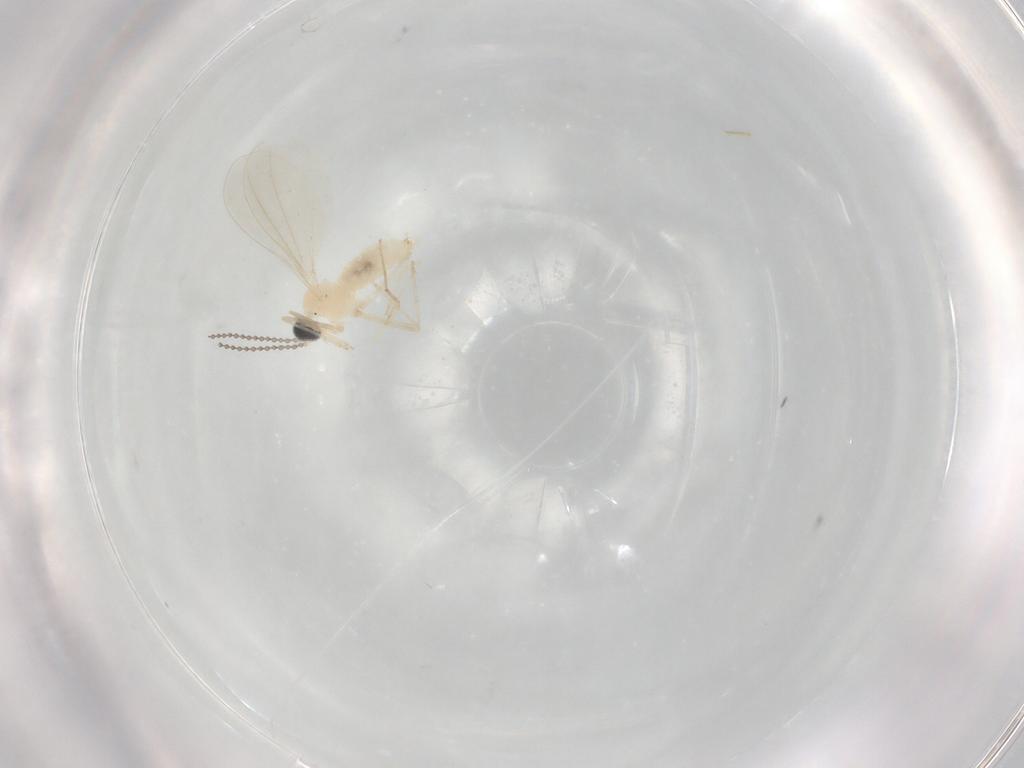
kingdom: Animalia
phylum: Arthropoda
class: Insecta
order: Diptera
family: Chironomidae
